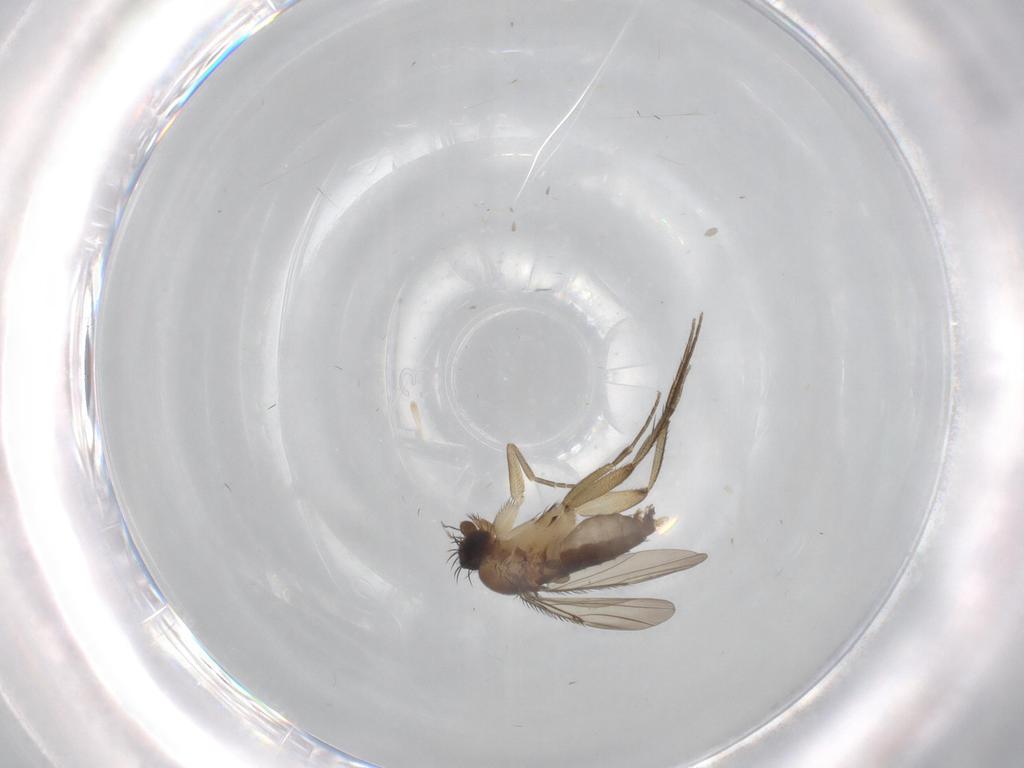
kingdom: Animalia
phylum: Arthropoda
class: Insecta
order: Diptera
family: Phoridae
